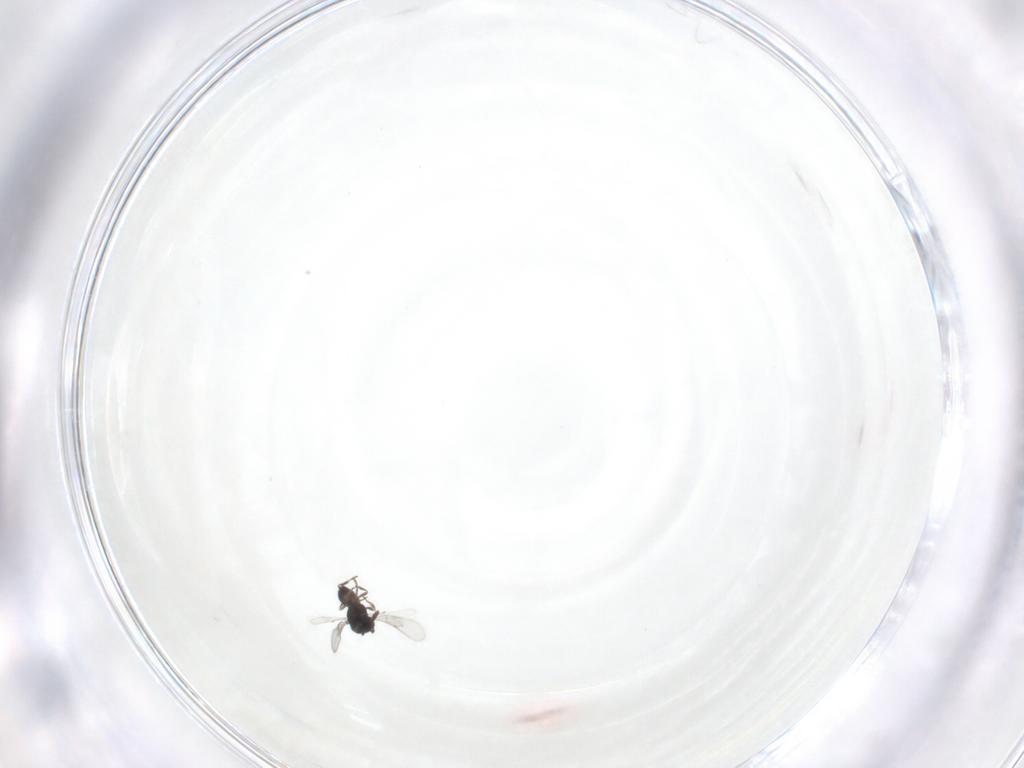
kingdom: Animalia
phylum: Arthropoda
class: Insecta
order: Hymenoptera
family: Scelionidae
